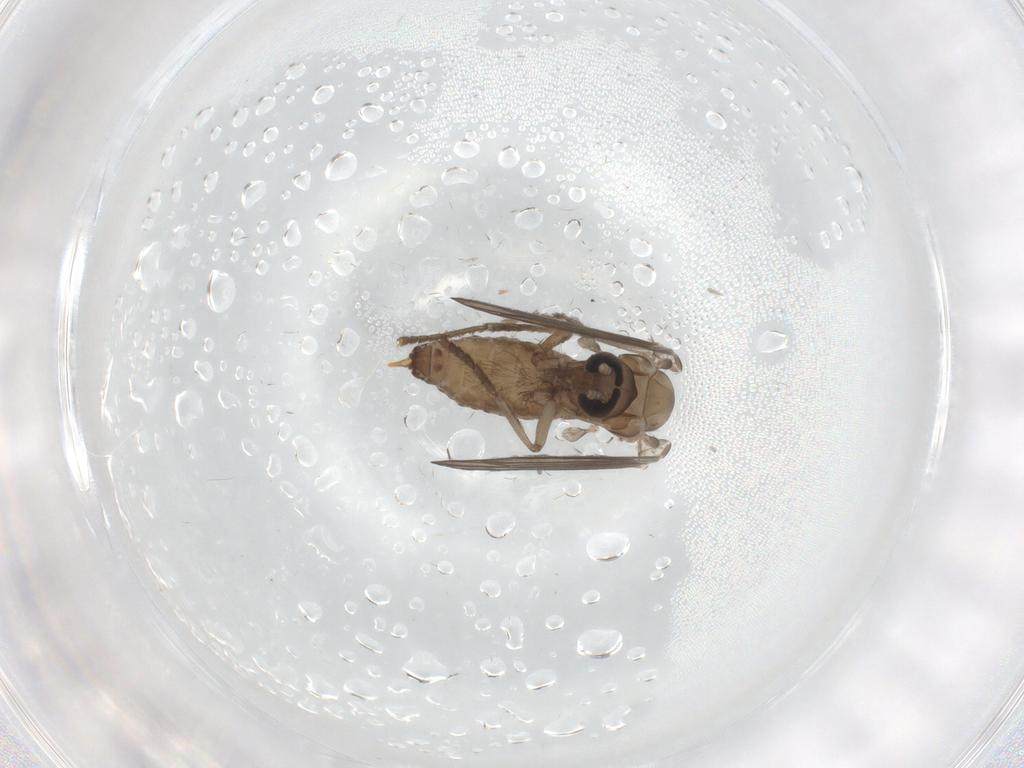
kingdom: Animalia
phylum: Arthropoda
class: Insecta
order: Diptera
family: Psychodidae
